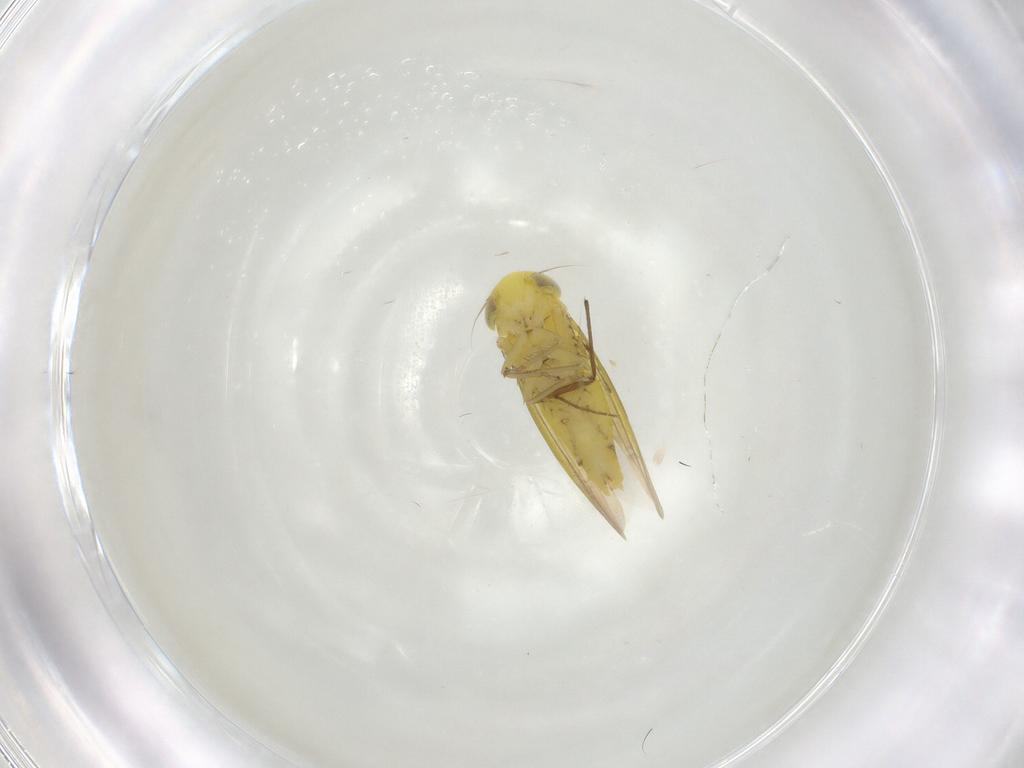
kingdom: Animalia
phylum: Arthropoda
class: Insecta
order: Hemiptera
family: Cicadellidae
